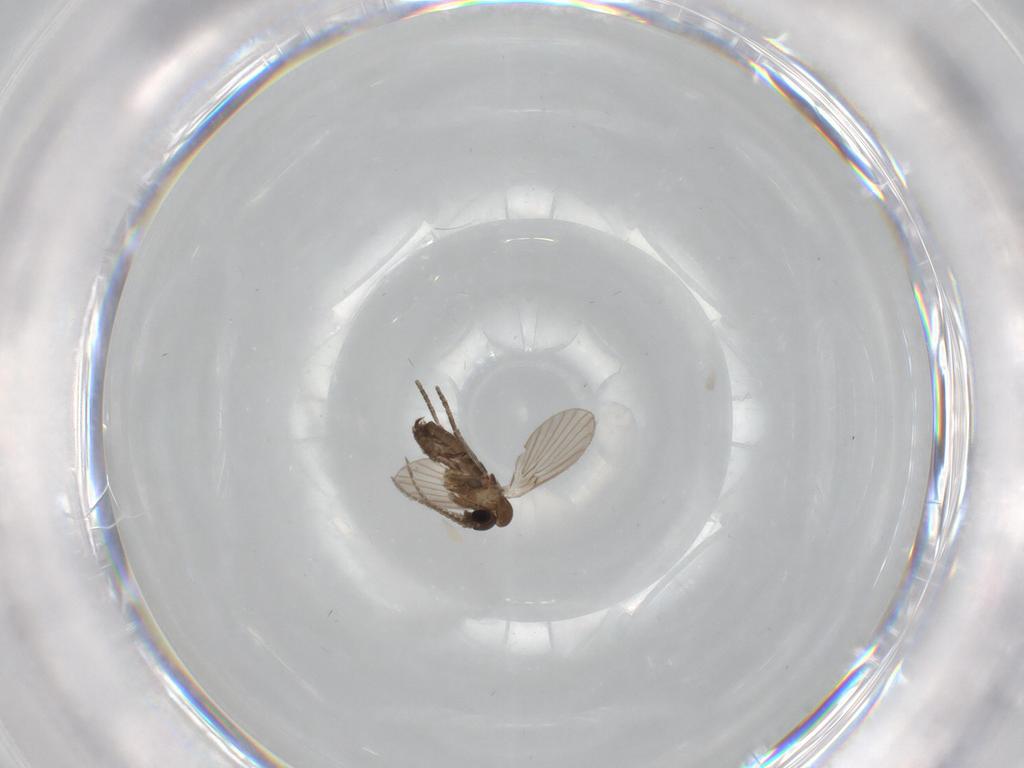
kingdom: Animalia
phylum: Arthropoda
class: Insecta
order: Diptera
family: Chironomidae
